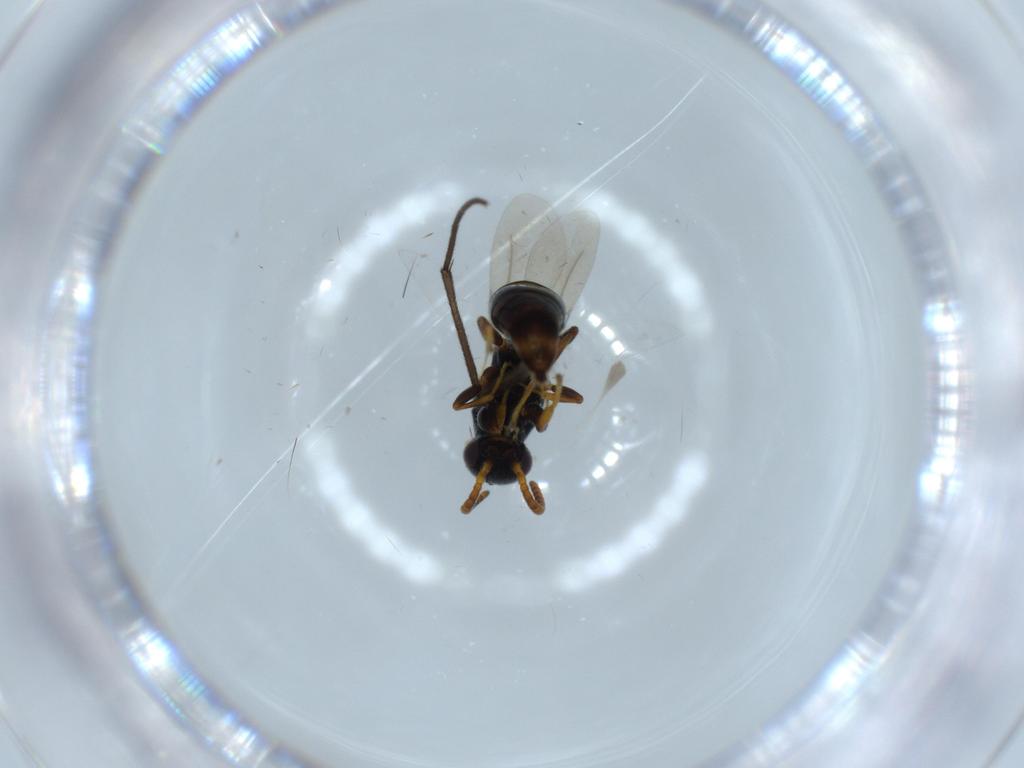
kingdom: Animalia
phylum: Arthropoda
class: Insecta
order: Hymenoptera
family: Bethylidae
